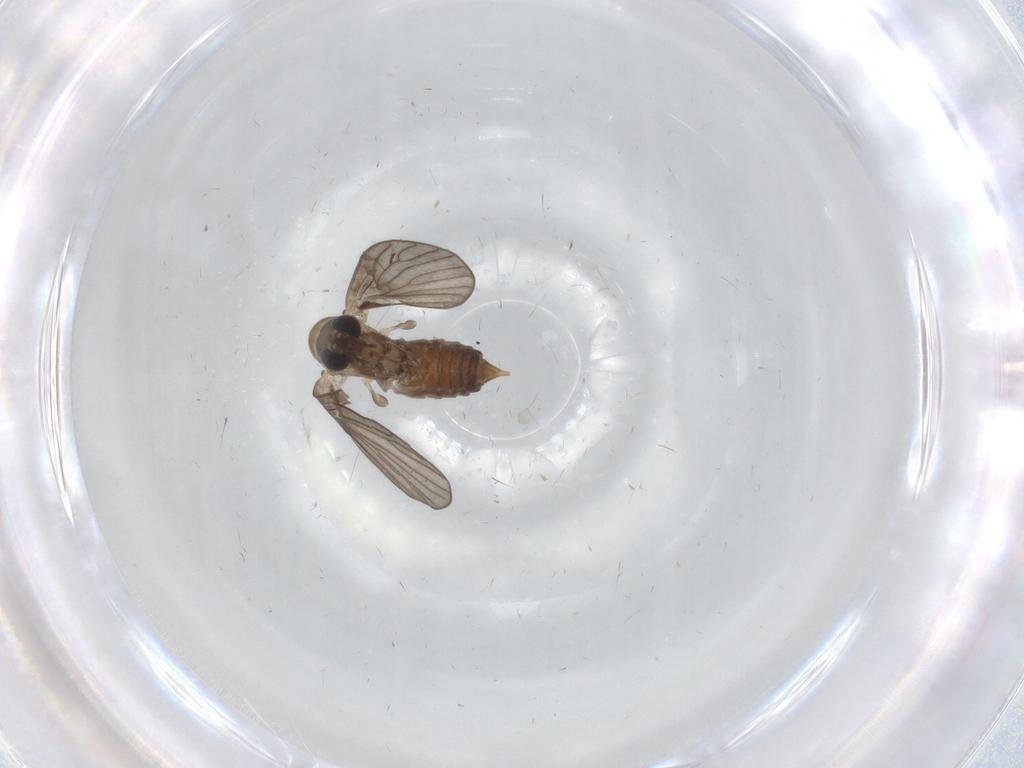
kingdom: Animalia
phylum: Arthropoda
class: Insecta
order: Diptera
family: Psychodidae
